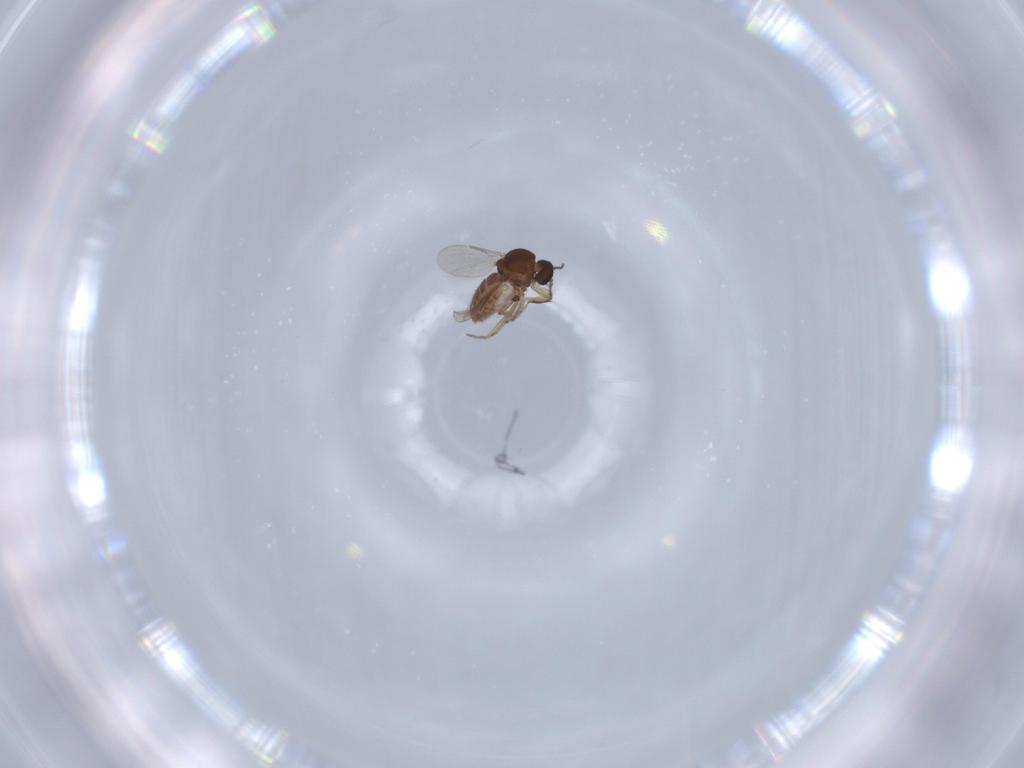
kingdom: Animalia
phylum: Arthropoda
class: Insecta
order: Diptera
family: Ceratopogonidae
